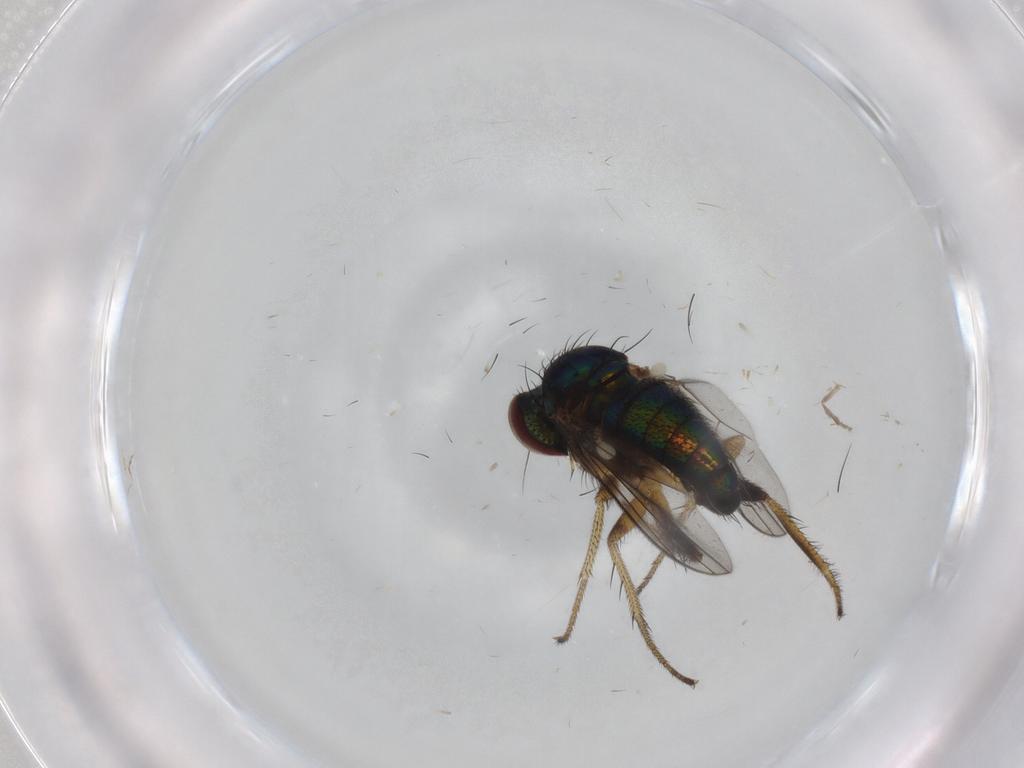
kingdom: Animalia
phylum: Arthropoda
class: Insecta
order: Diptera
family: Dolichopodidae
